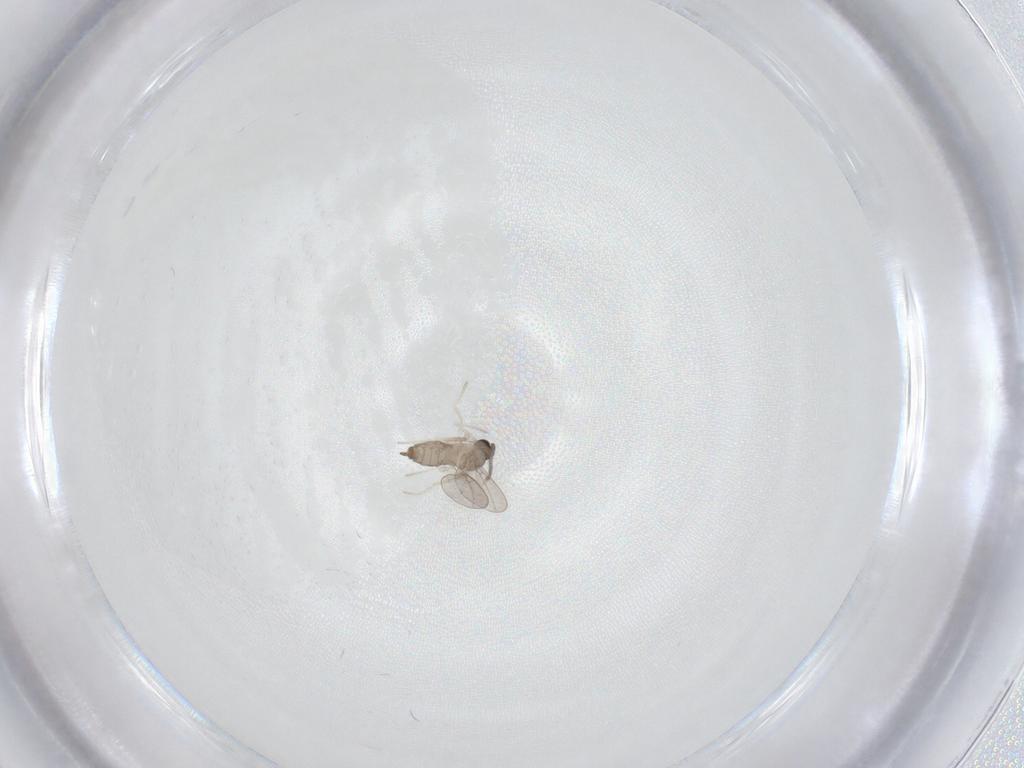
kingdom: Animalia
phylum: Arthropoda
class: Insecta
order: Diptera
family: Cecidomyiidae
